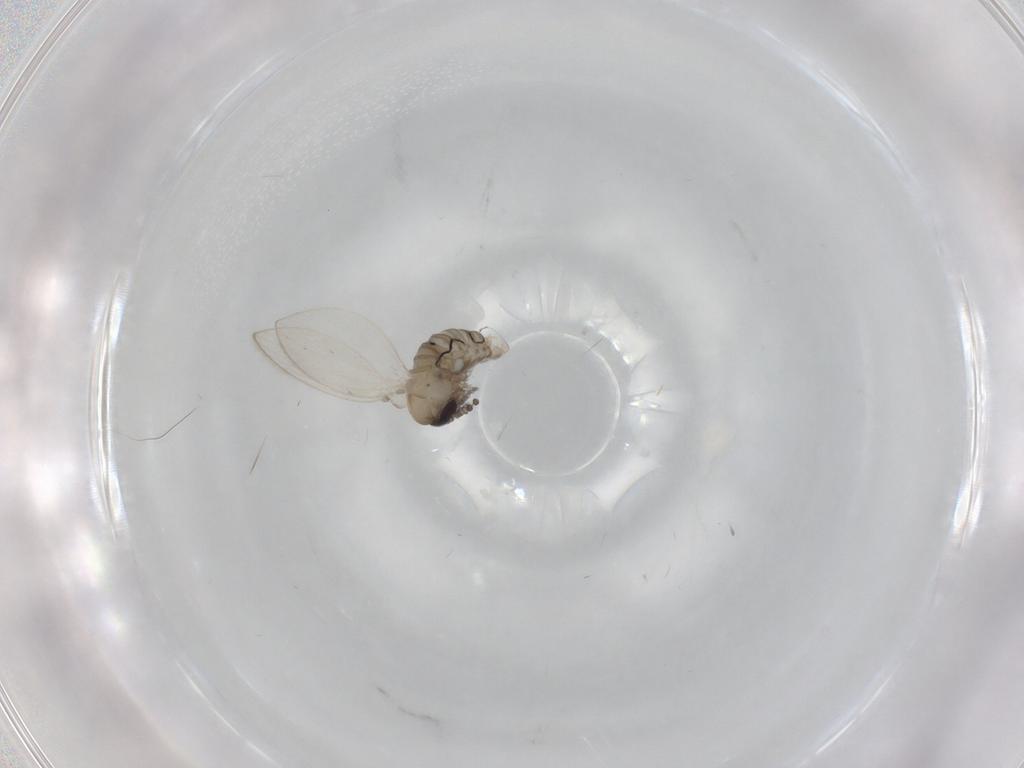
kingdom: Animalia
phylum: Arthropoda
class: Insecta
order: Diptera
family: Psychodidae
